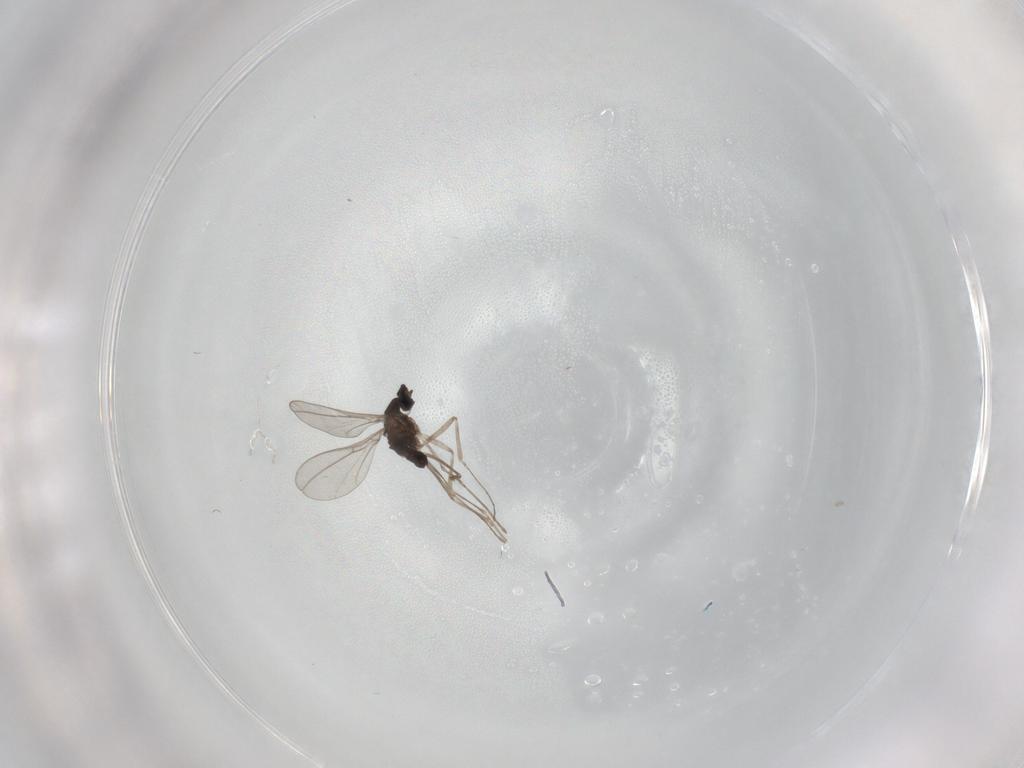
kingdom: Animalia
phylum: Arthropoda
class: Insecta
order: Diptera
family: Cecidomyiidae
